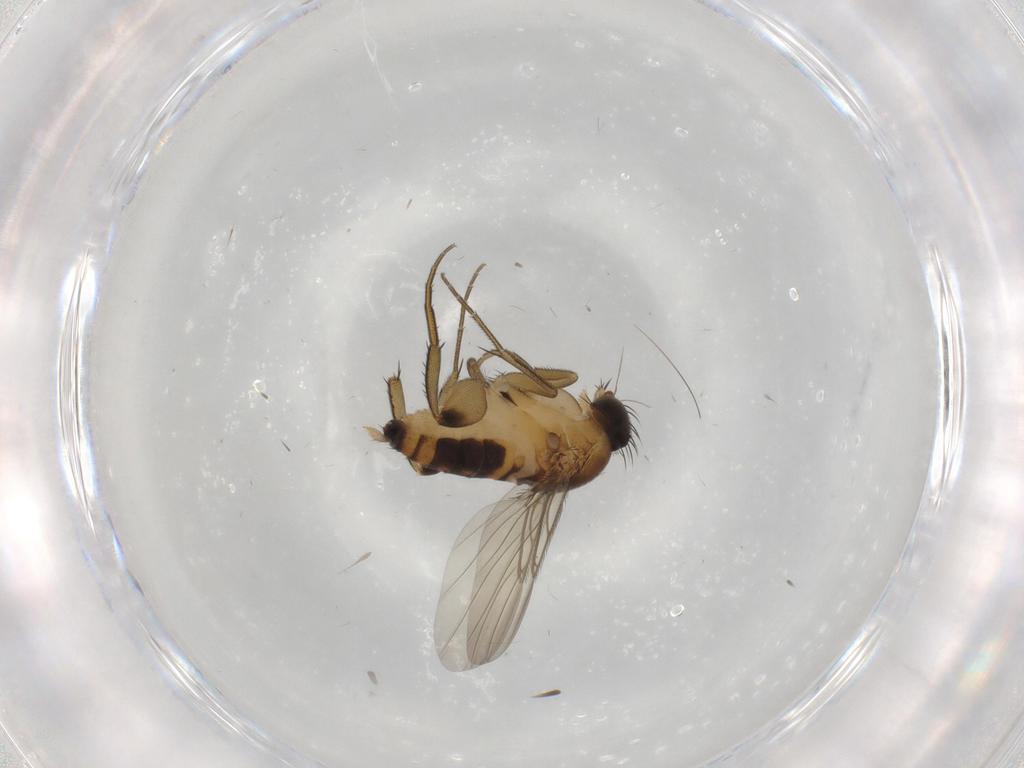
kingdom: Animalia
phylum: Arthropoda
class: Insecta
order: Diptera
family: Phoridae
